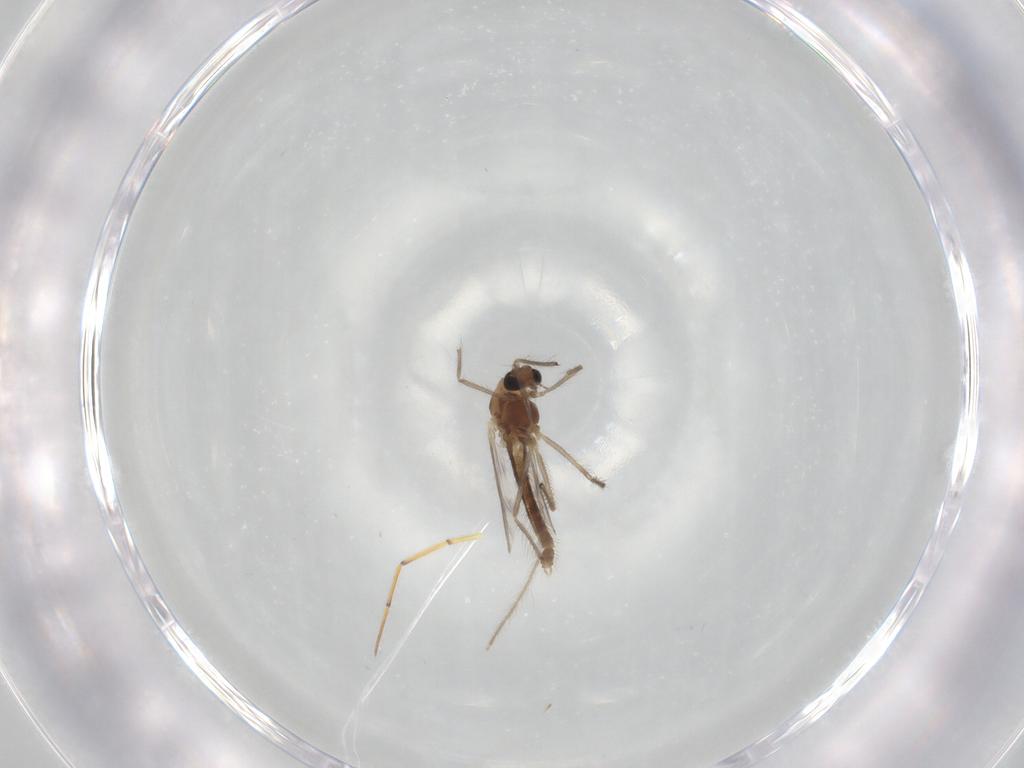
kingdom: Animalia
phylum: Arthropoda
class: Insecta
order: Diptera
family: Chironomidae
